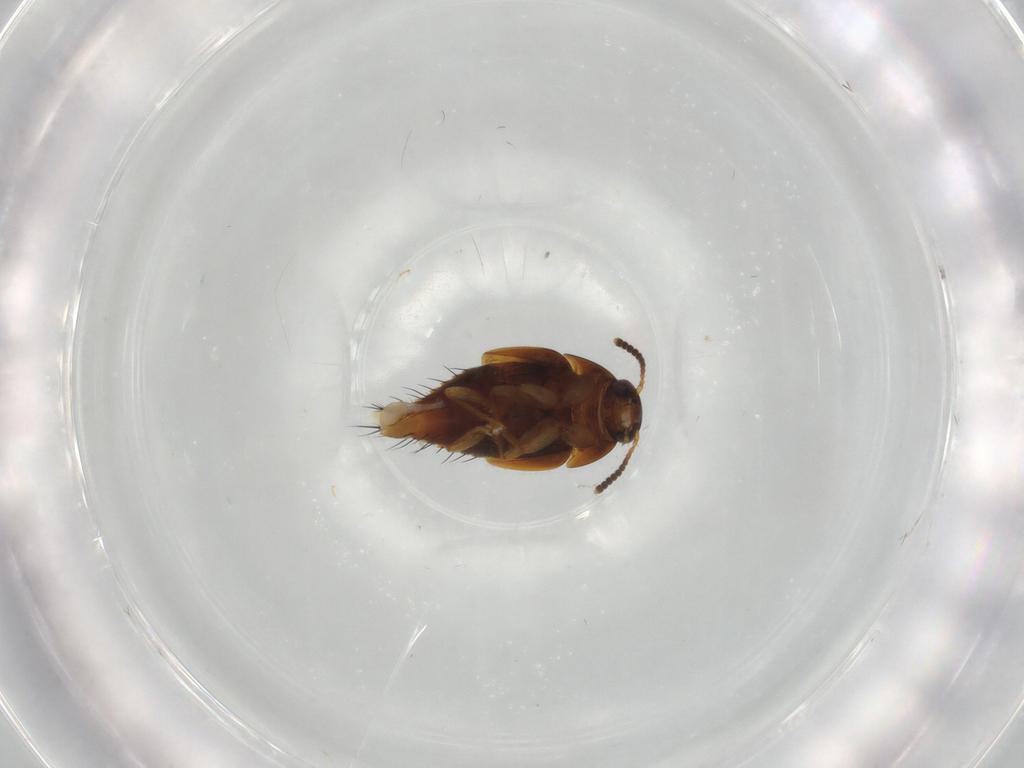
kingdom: Animalia
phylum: Arthropoda
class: Insecta
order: Coleoptera
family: Staphylinidae
